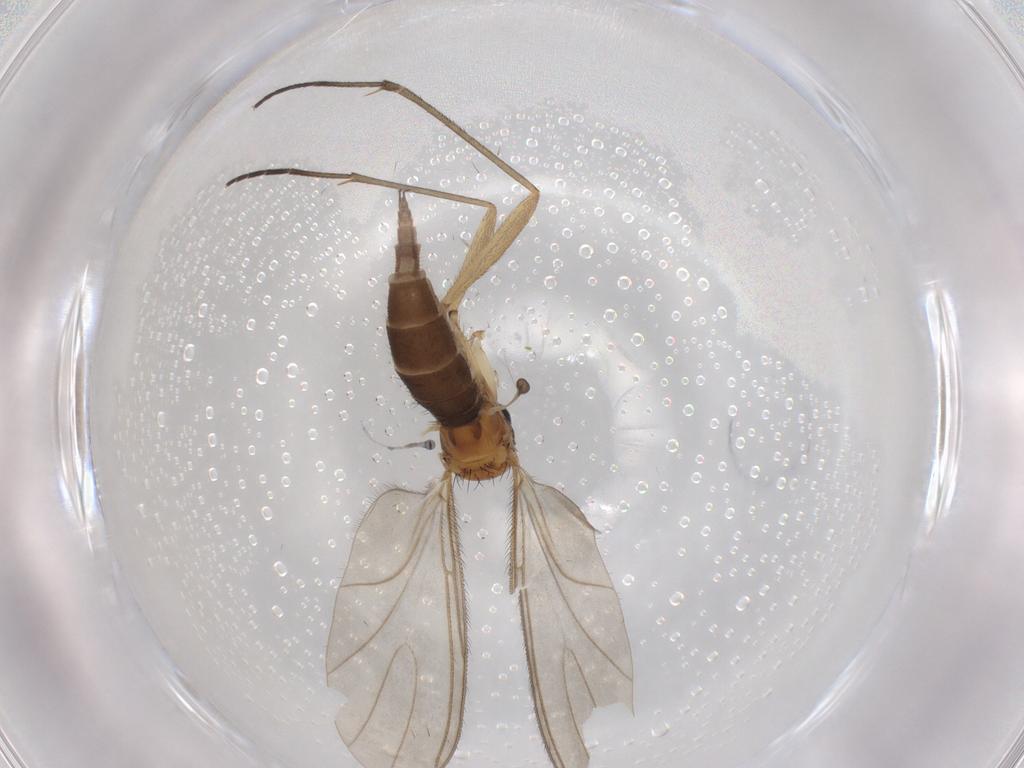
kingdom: Animalia
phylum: Arthropoda
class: Insecta
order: Diptera
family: Sciaridae
